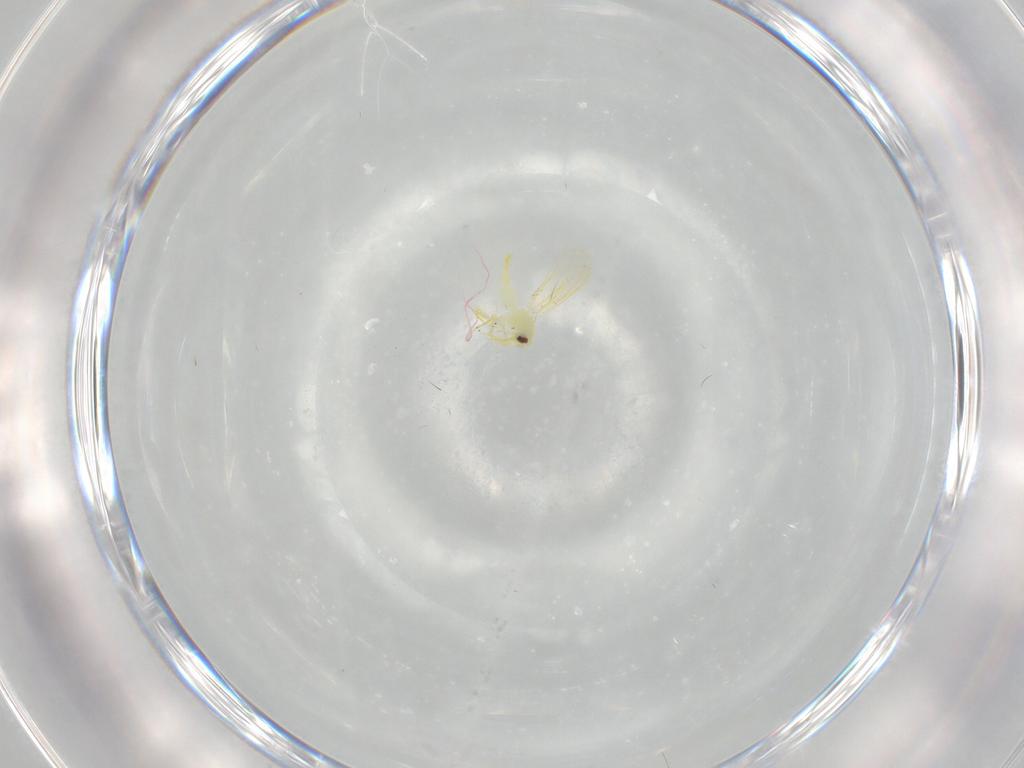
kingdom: Animalia
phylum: Arthropoda
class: Insecta
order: Hemiptera
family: Aleyrodidae
